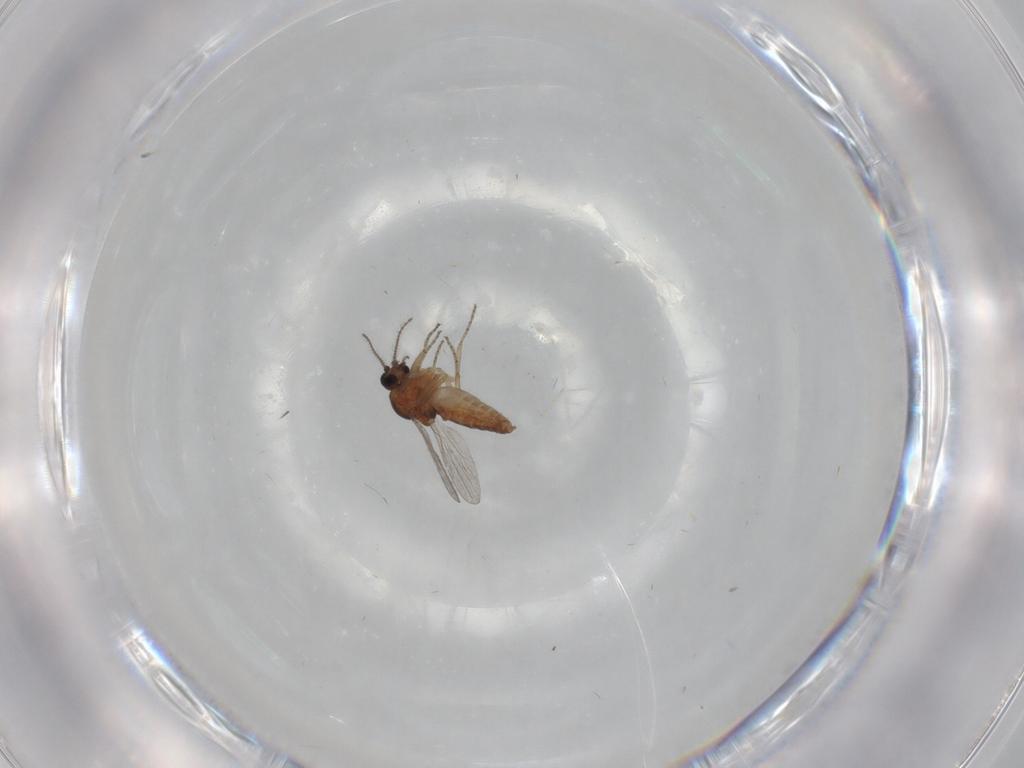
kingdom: Animalia
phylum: Arthropoda
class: Insecta
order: Diptera
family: Ceratopogonidae
